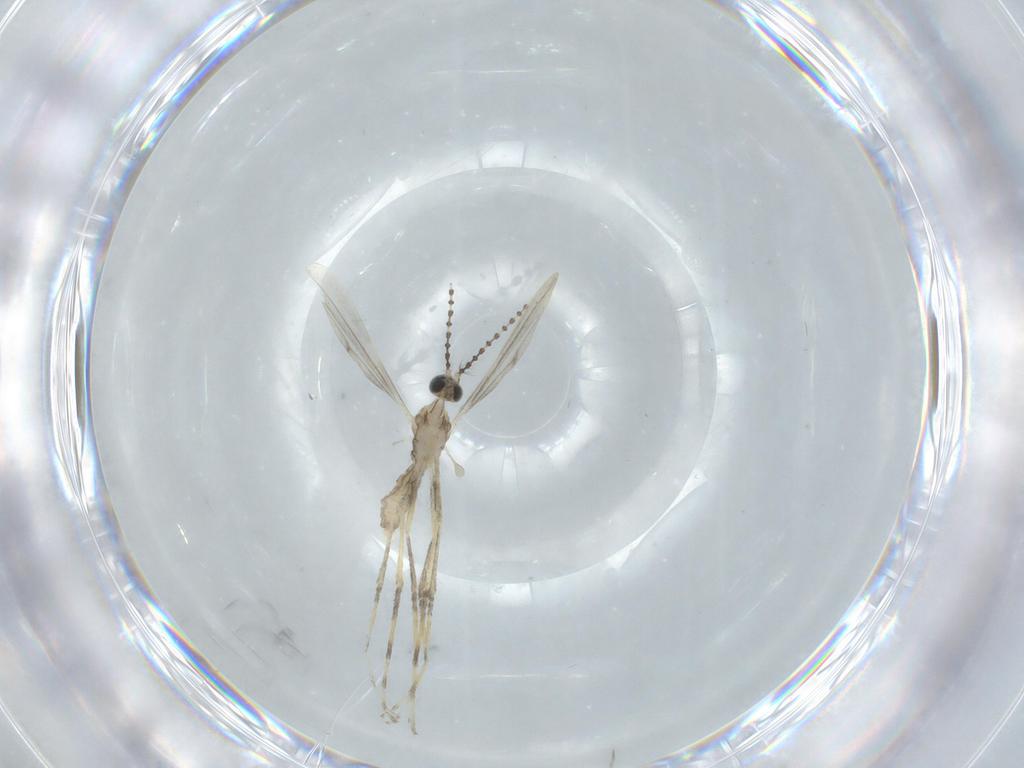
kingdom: Animalia
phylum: Arthropoda
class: Insecta
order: Diptera
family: Cecidomyiidae
